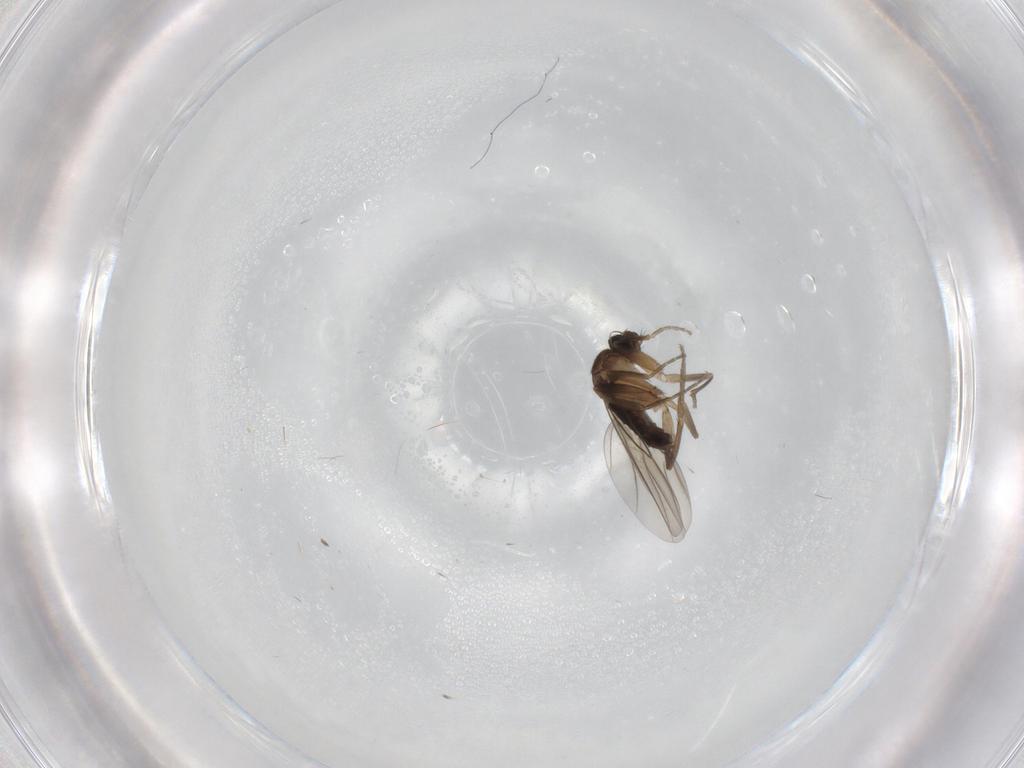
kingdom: Animalia
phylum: Arthropoda
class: Insecta
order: Diptera
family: Phoridae
